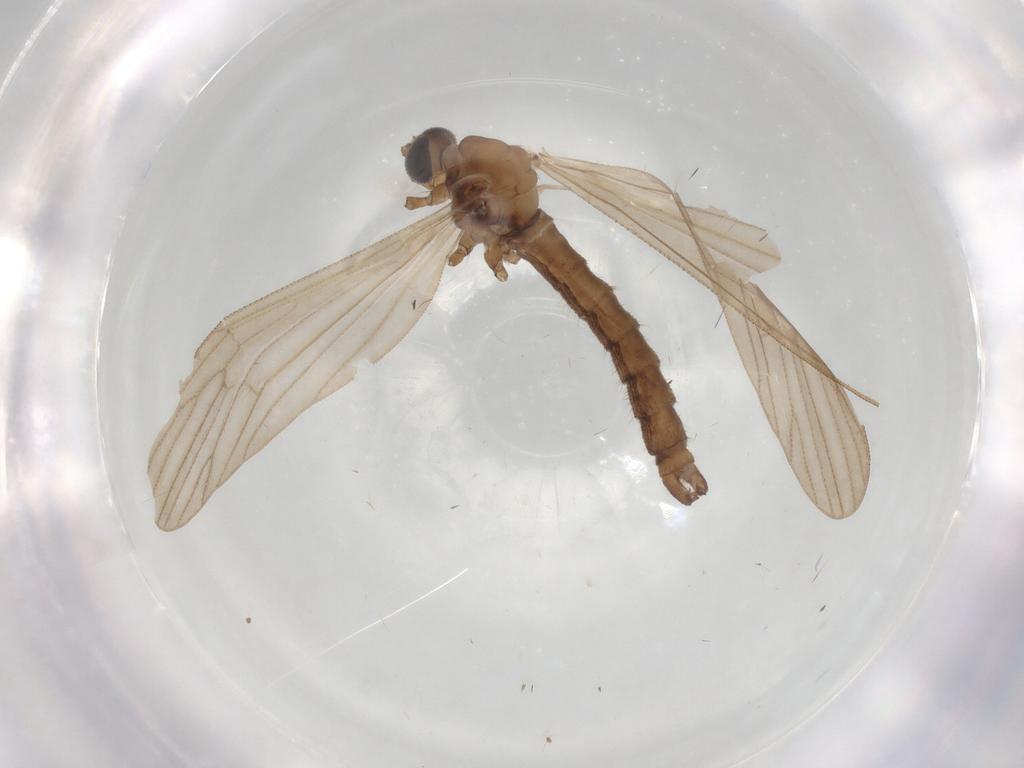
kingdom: Animalia
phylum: Arthropoda
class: Insecta
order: Diptera
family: Limoniidae
